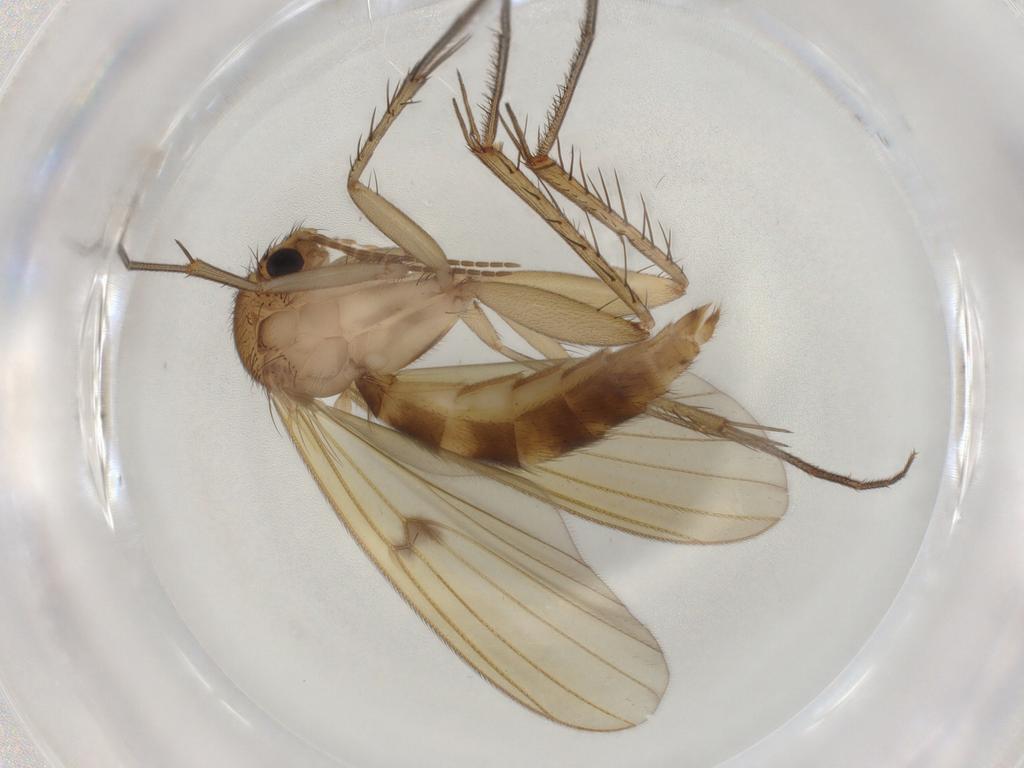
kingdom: Animalia
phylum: Arthropoda
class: Insecta
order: Diptera
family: Mycetophilidae
